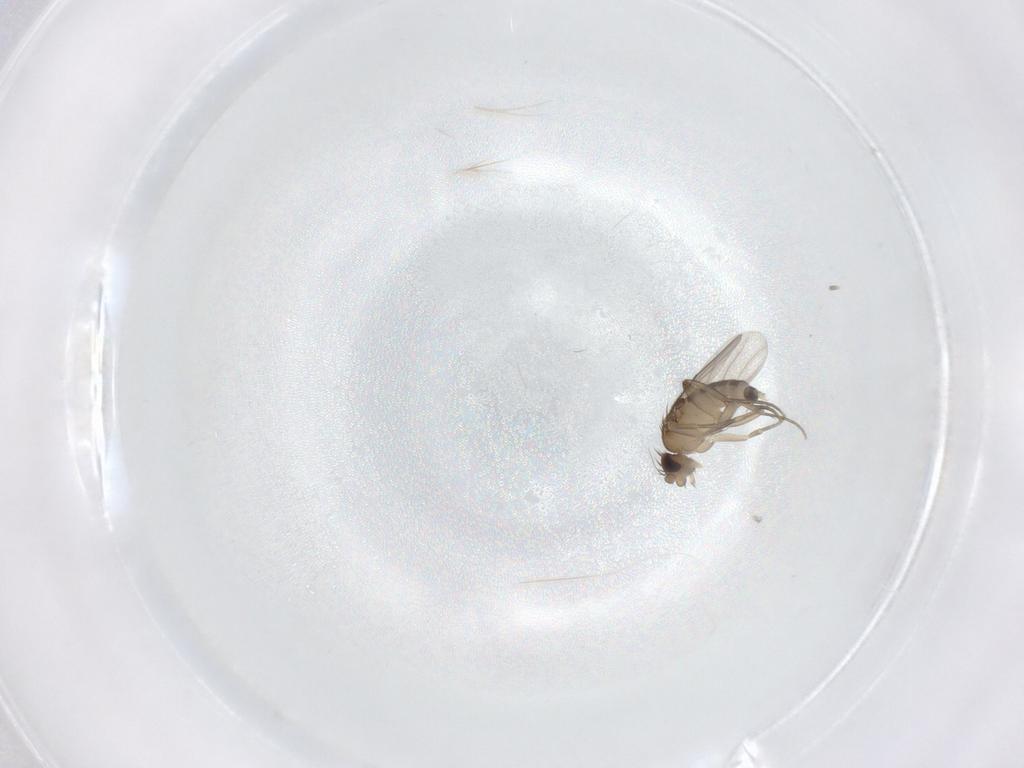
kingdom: Animalia
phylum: Arthropoda
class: Insecta
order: Diptera
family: Phoridae
